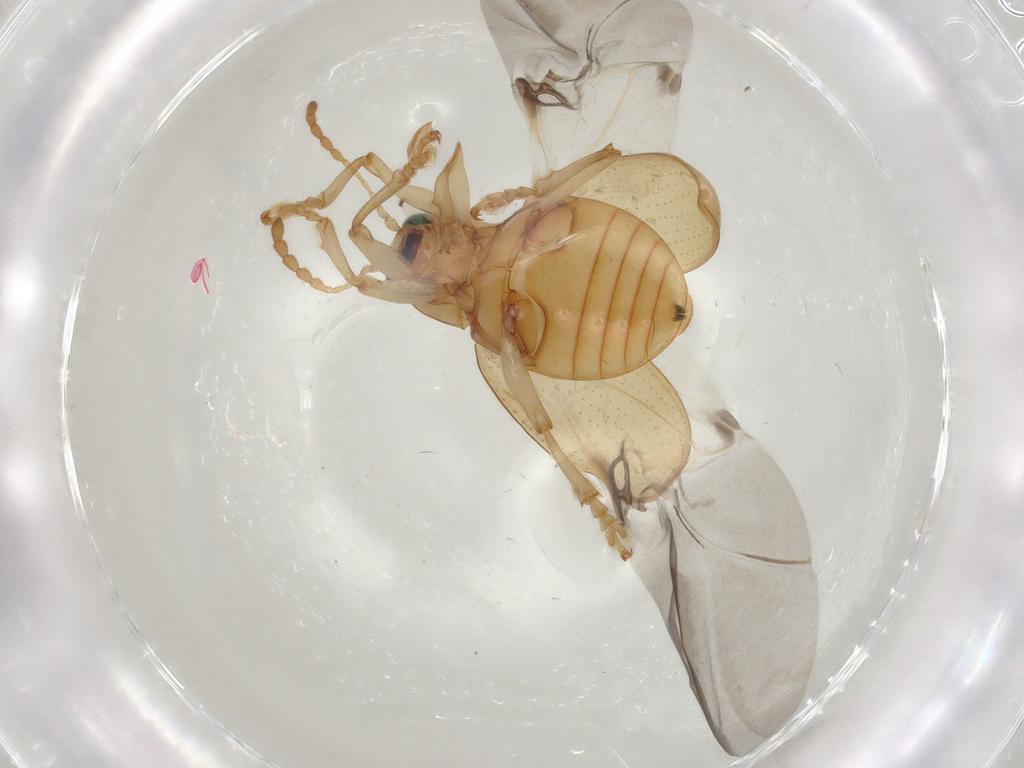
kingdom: Animalia
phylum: Arthropoda
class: Insecta
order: Coleoptera
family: Chrysomelidae
